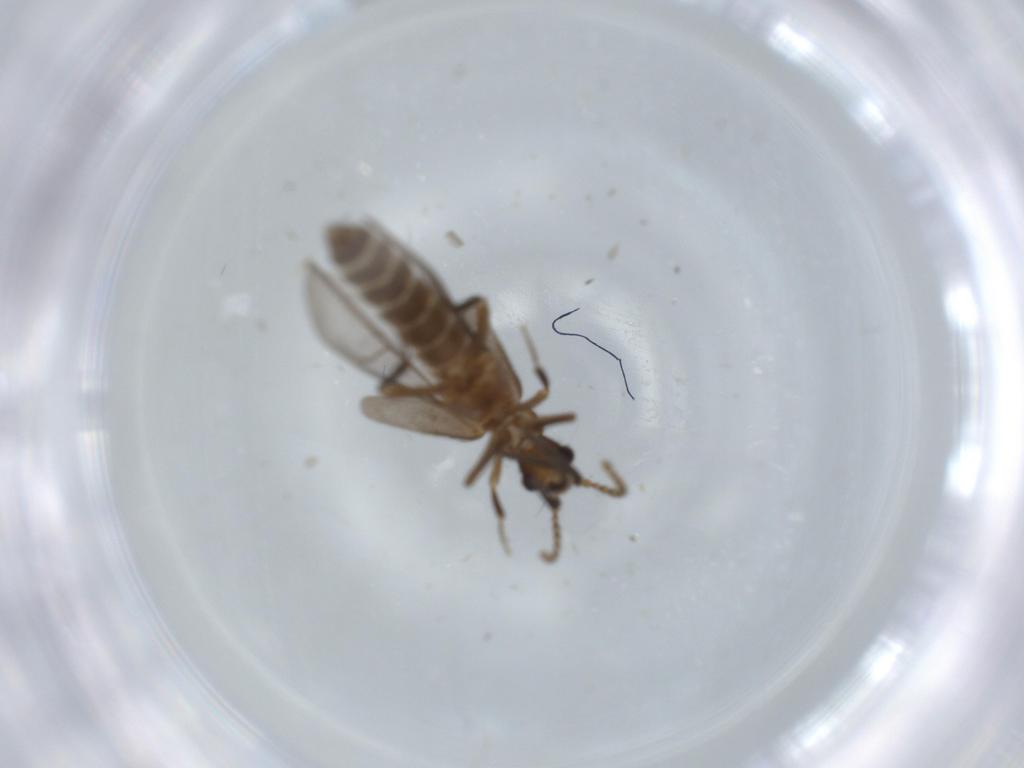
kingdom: Animalia
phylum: Arthropoda
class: Insecta
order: Coleoptera
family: Omethidae
